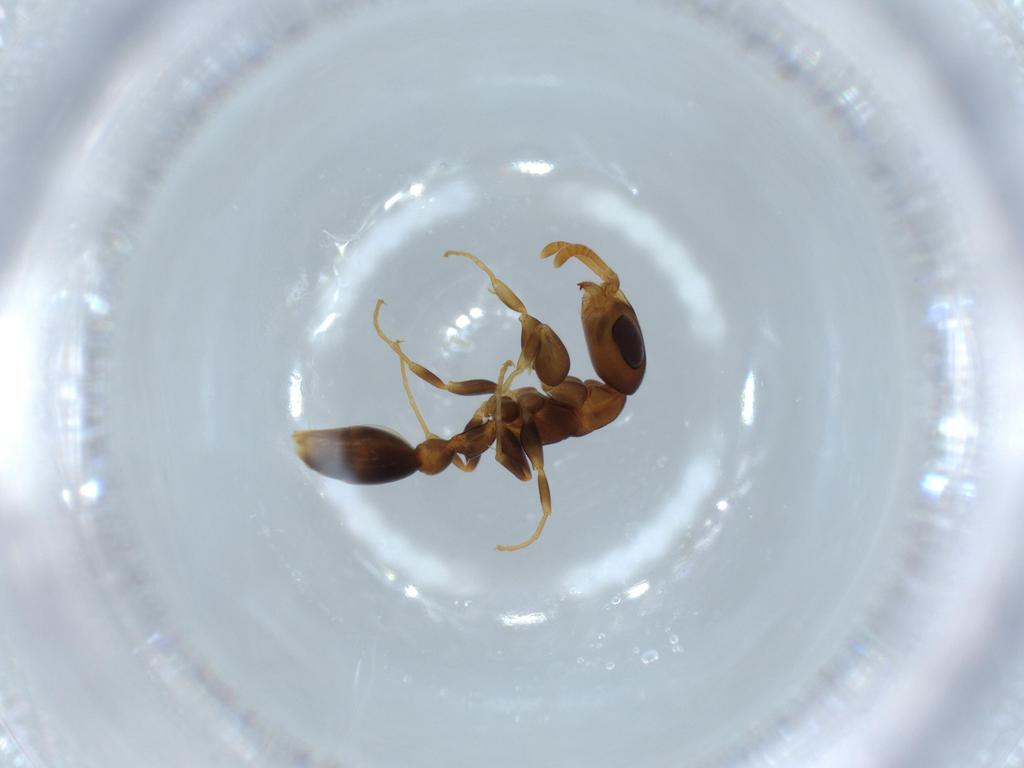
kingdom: Animalia
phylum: Arthropoda
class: Insecta
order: Hymenoptera
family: Formicidae
